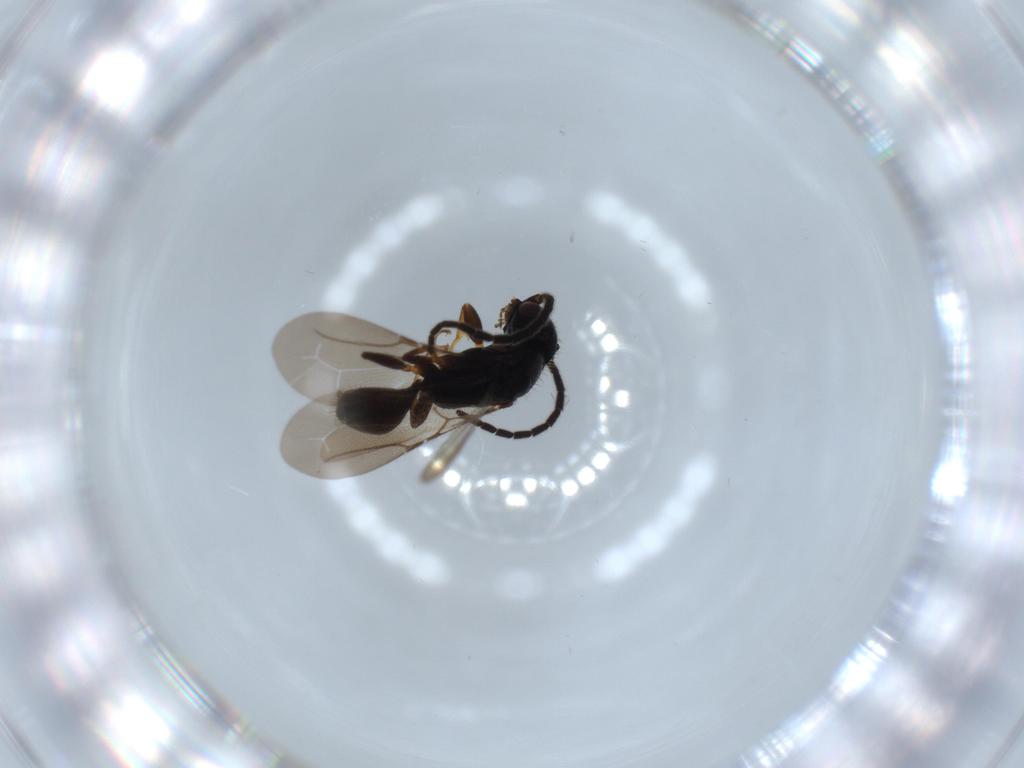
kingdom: Animalia
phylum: Arthropoda
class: Insecta
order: Hymenoptera
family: Bethylidae
